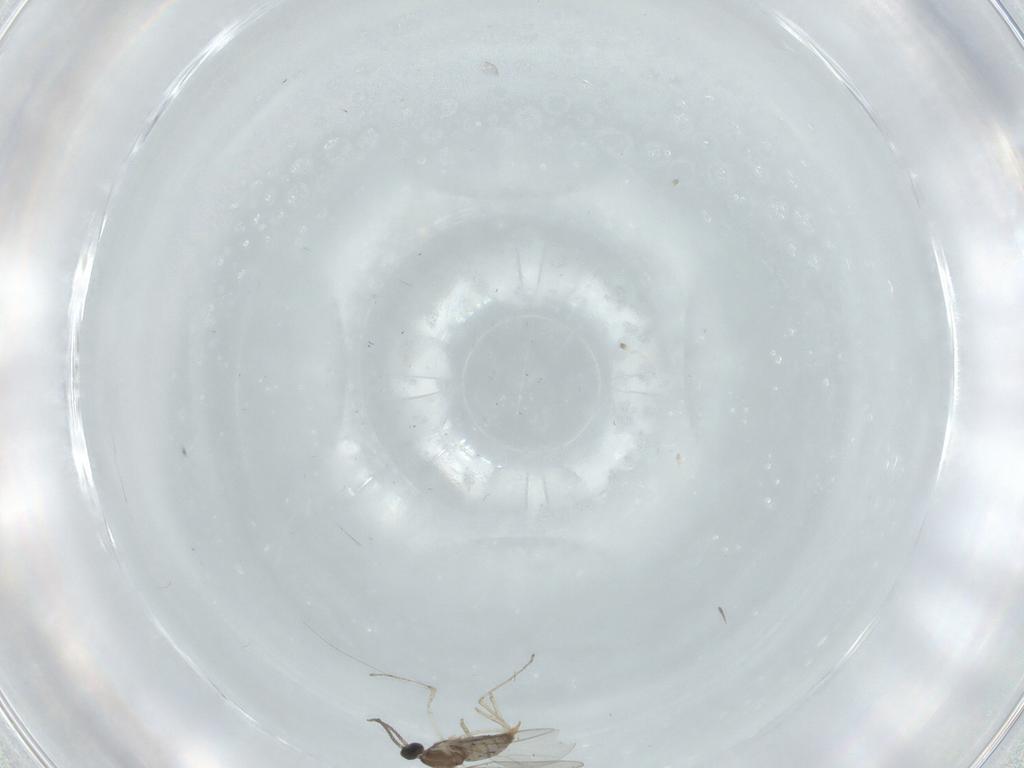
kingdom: Animalia
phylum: Arthropoda
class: Insecta
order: Diptera
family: Cecidomyiidae
